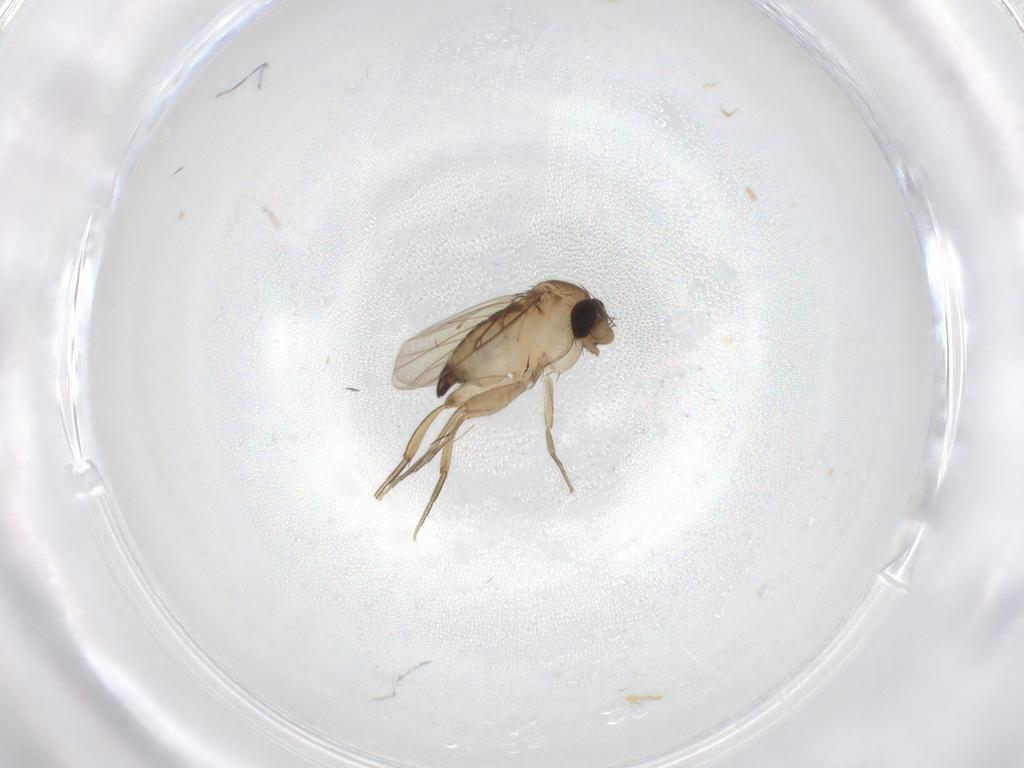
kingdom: Animalia
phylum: Arthropoda
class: Insecta
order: Diptera
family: Phoridae
